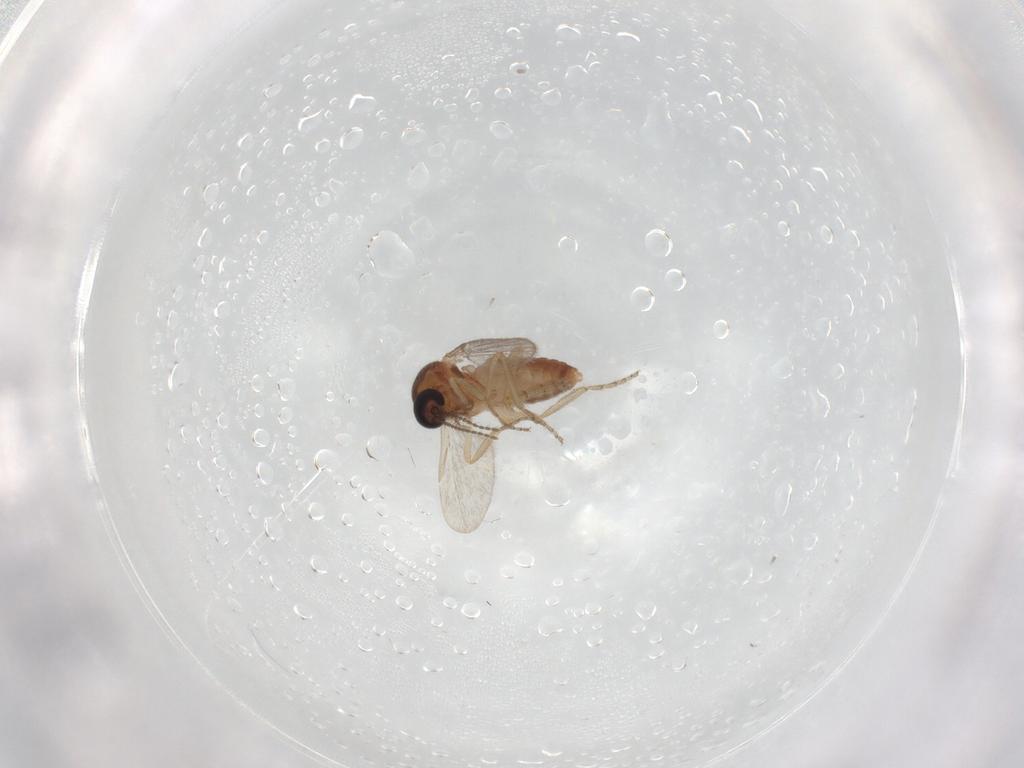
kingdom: Animalia
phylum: Arthropoda
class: Insecta
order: Diptera
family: Ceratopogonidae
